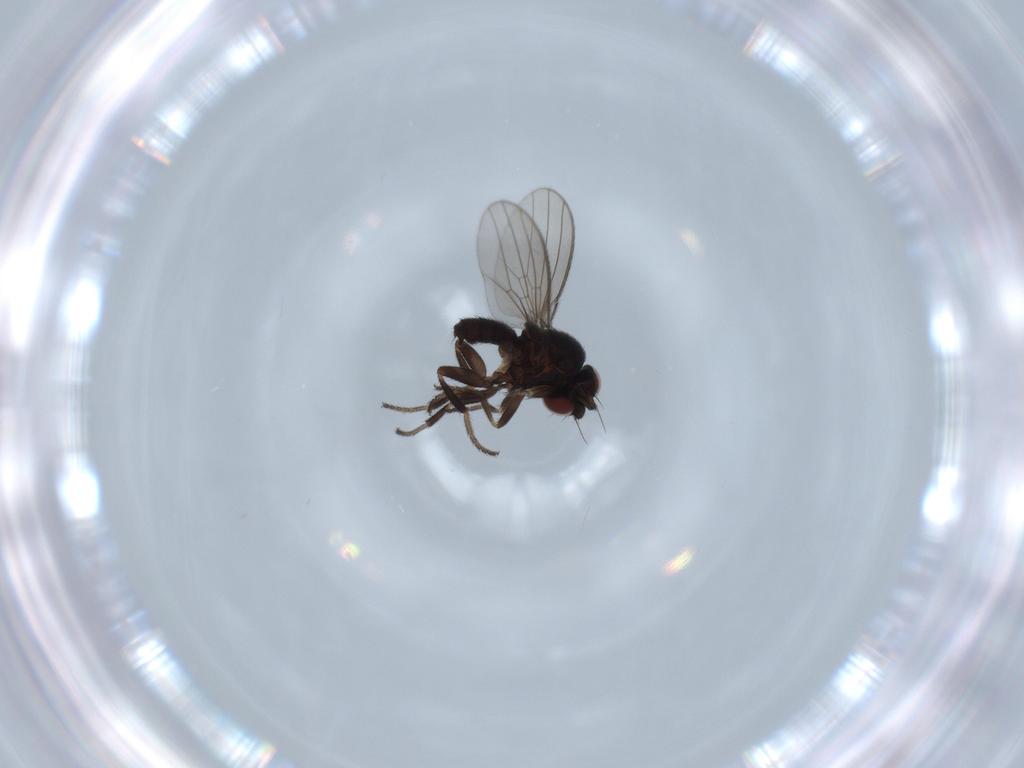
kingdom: Animalia
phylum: Arthropoda
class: Insecta
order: Diptera
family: Milichiidae
